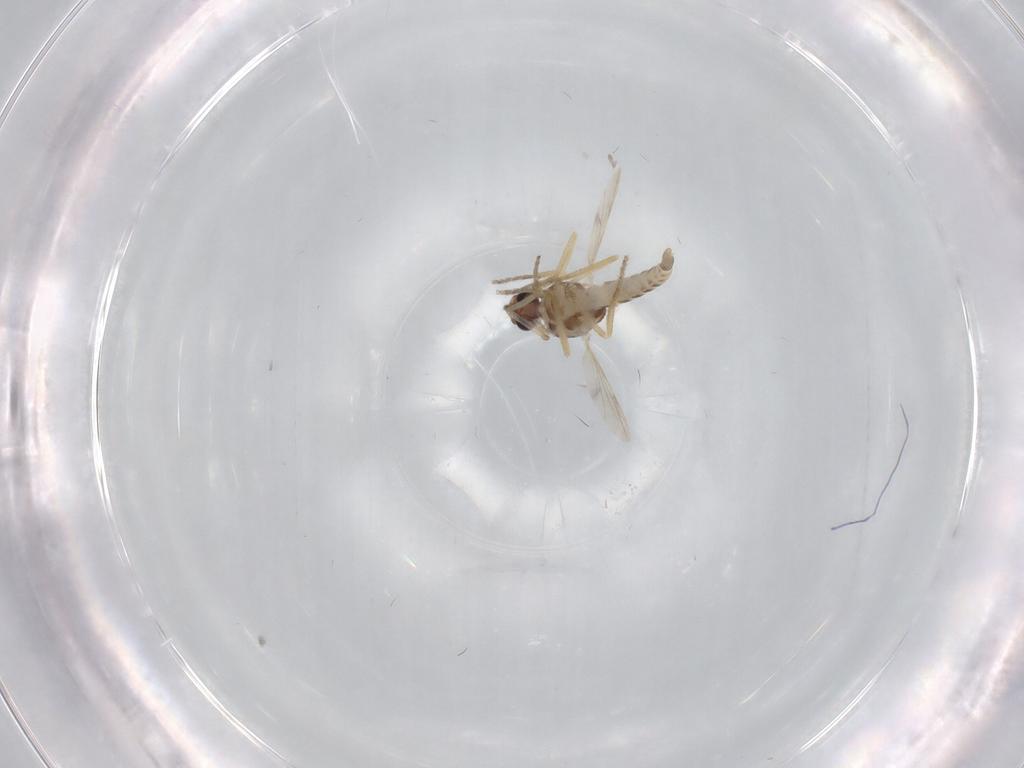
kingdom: Animalia
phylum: Arthropoda
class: Insecta
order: Diptera
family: Ceratopogonidae
